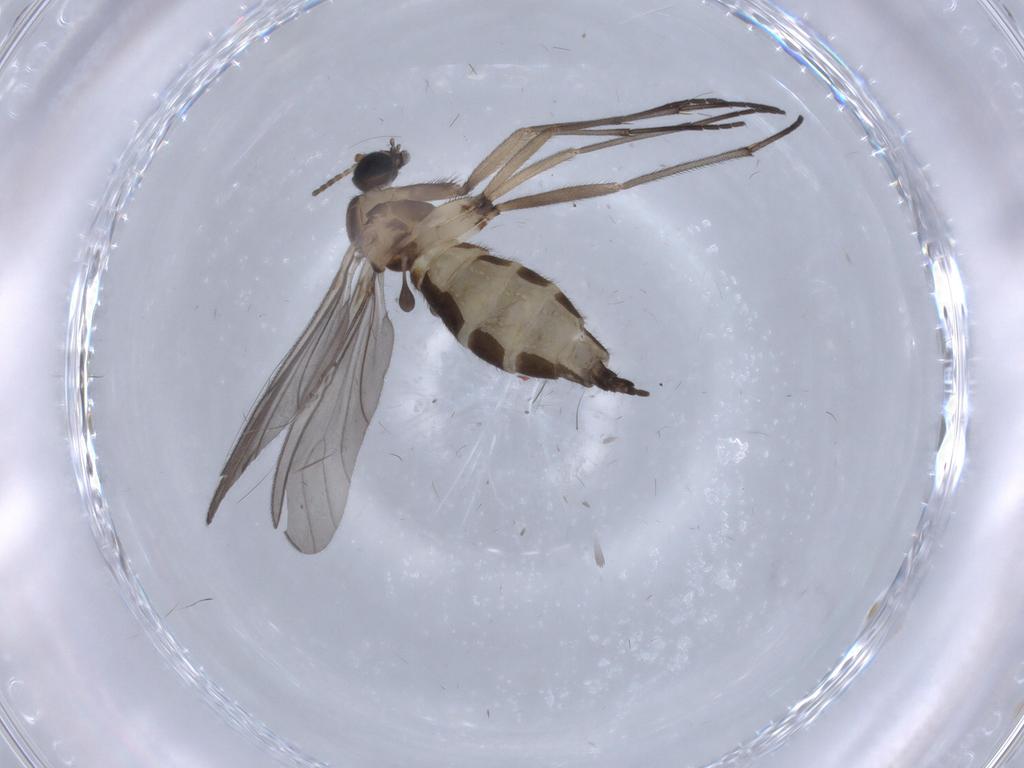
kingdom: Animalia
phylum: Arthropoda
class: Insecta
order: Diptera
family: Sciaridae
